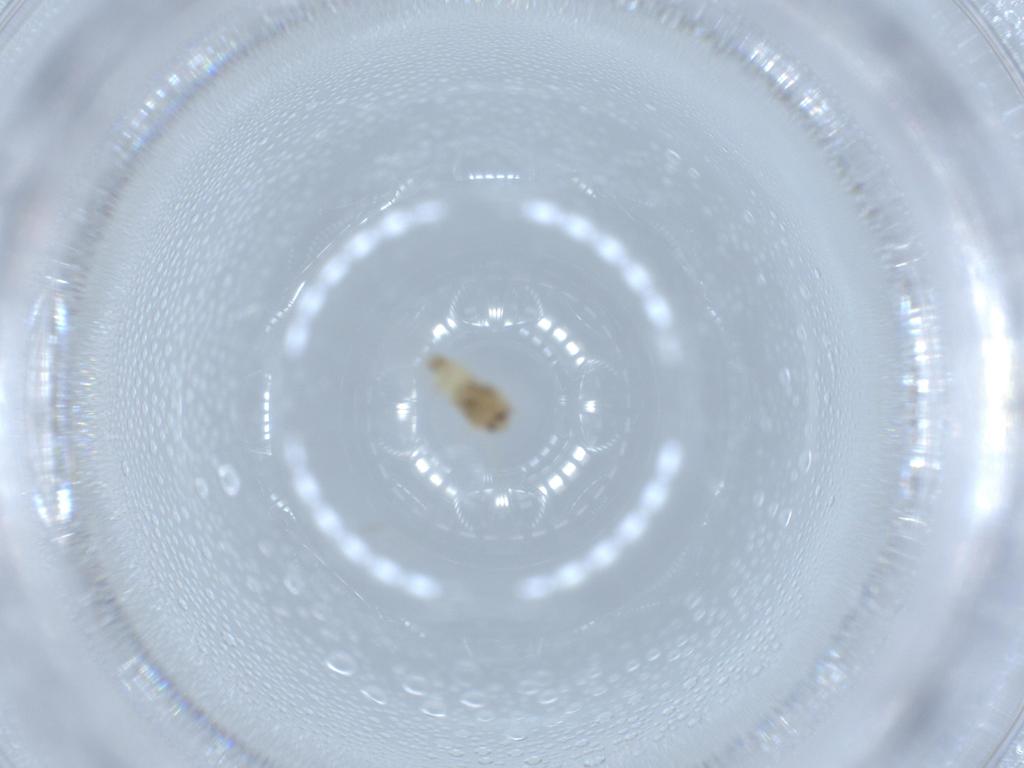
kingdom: Animalia
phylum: Arthropoda
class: Insecta
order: Hemiptera
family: Aleyrodidae
